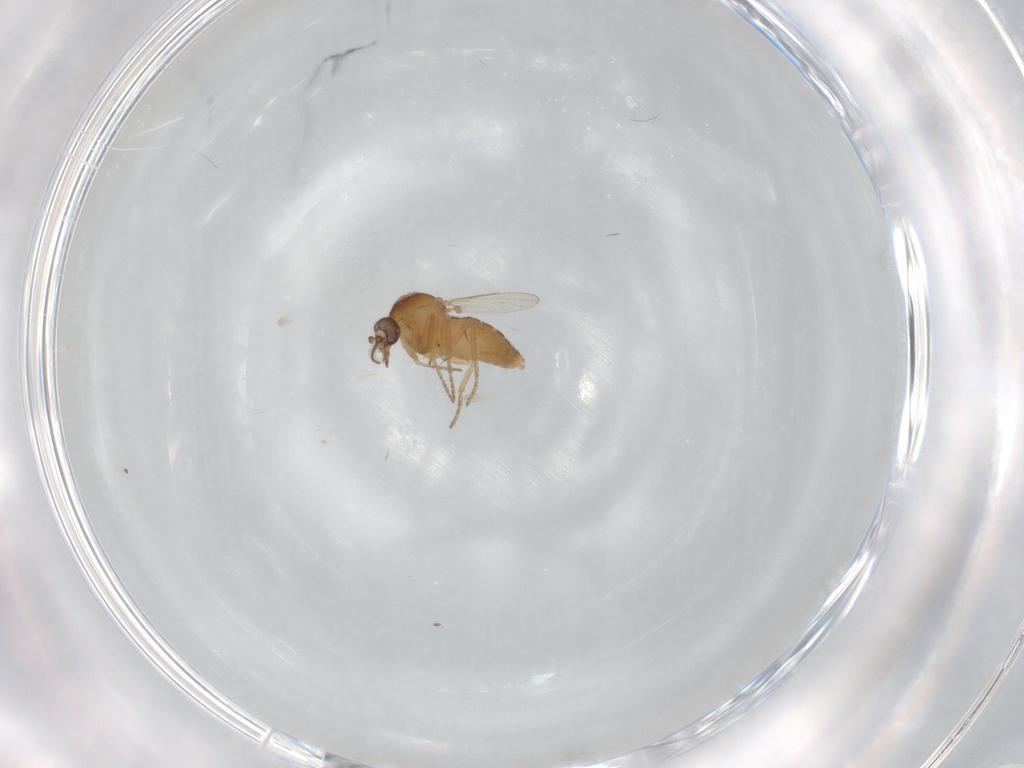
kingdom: Animalia
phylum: Arthropoda
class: Insecta
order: Diptera
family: Ceratopogonidae
